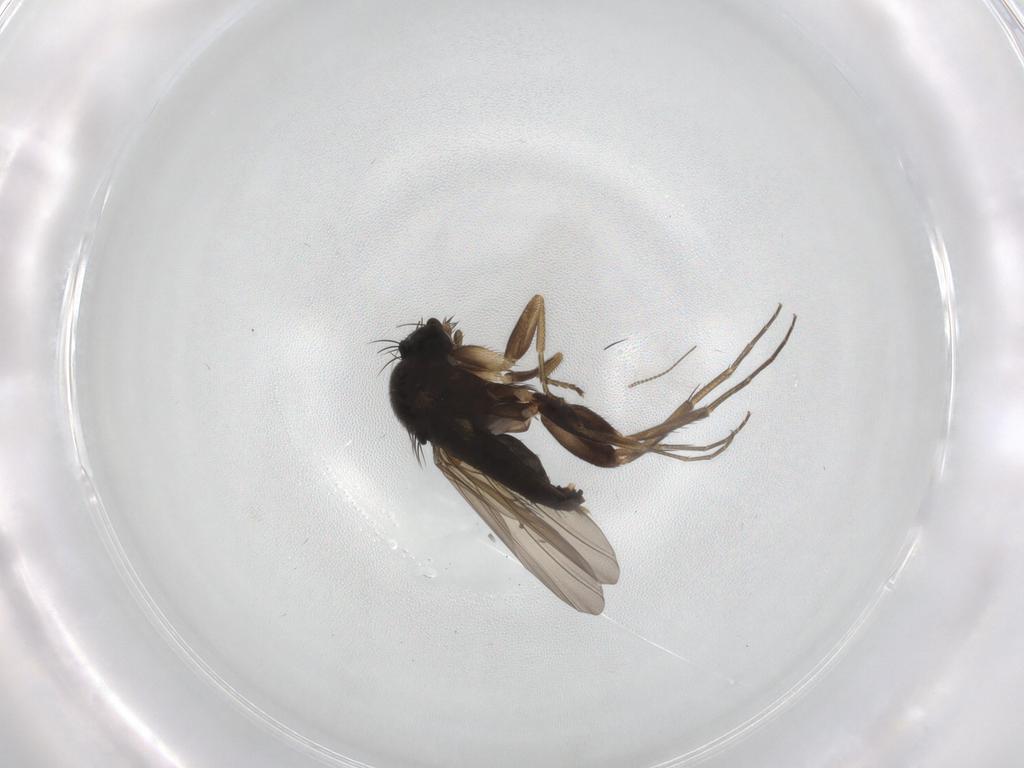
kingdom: Animalia
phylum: Arthropoda
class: Insecta
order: Diptera
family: Phoridae
